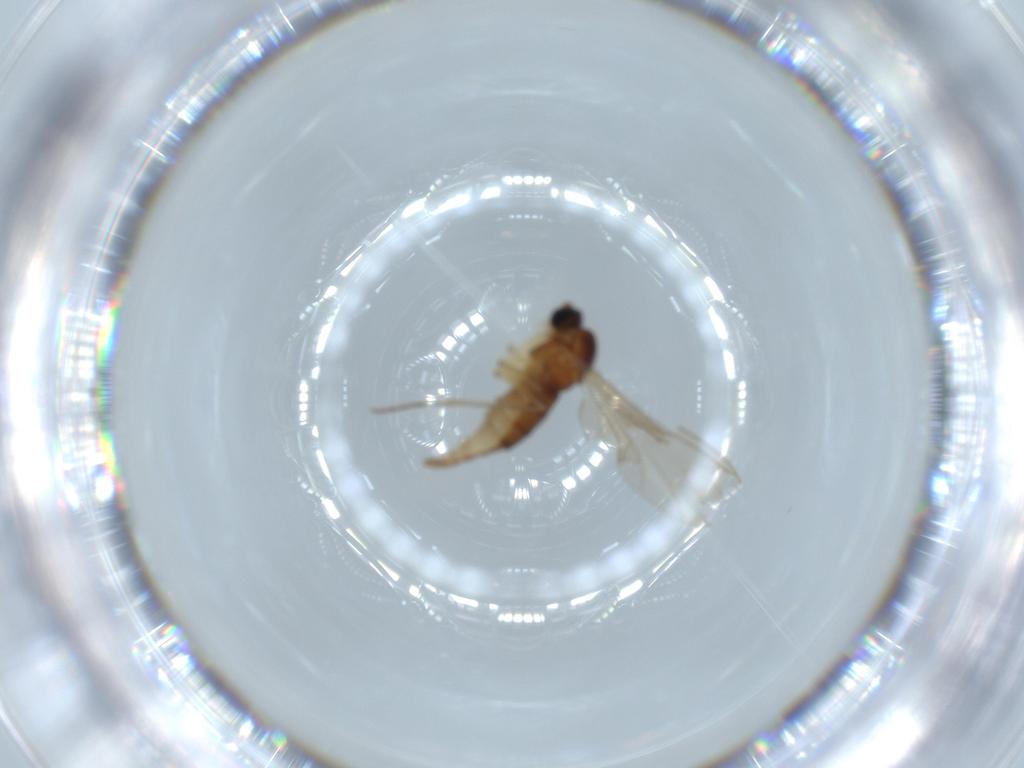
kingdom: Animalia
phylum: Arthropoda
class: Insecta
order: Diptera
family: Sciaridae
